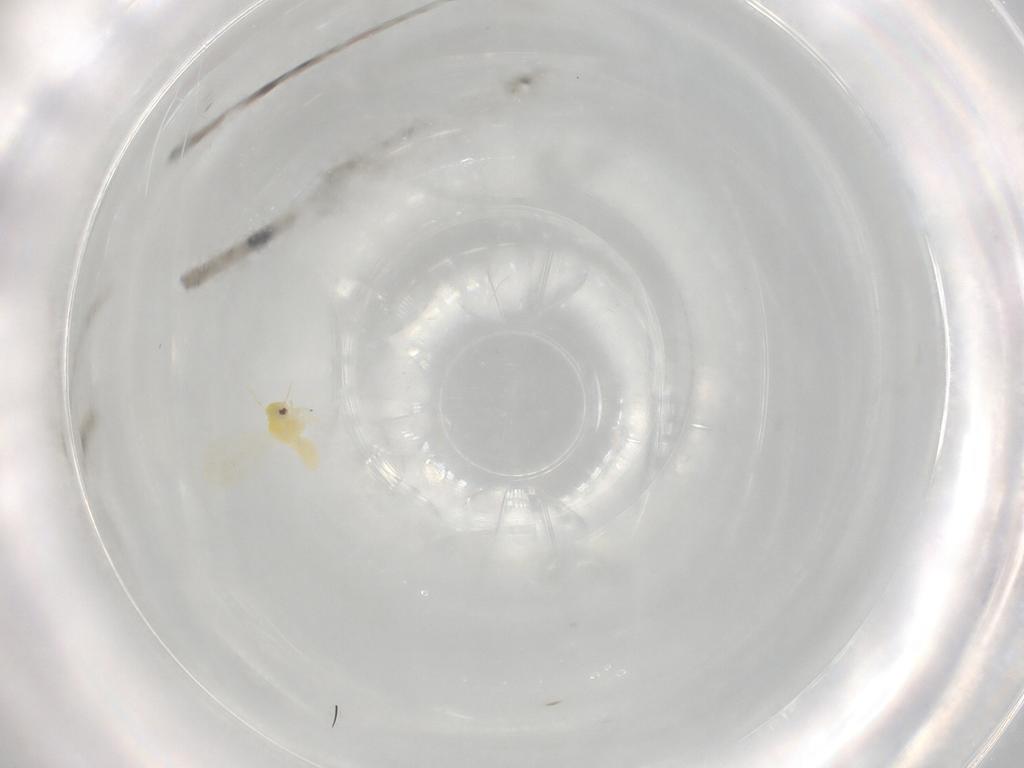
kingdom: Animalia
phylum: Arthropoda
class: Insecta
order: Hemiptera
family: Aleyrodidae
